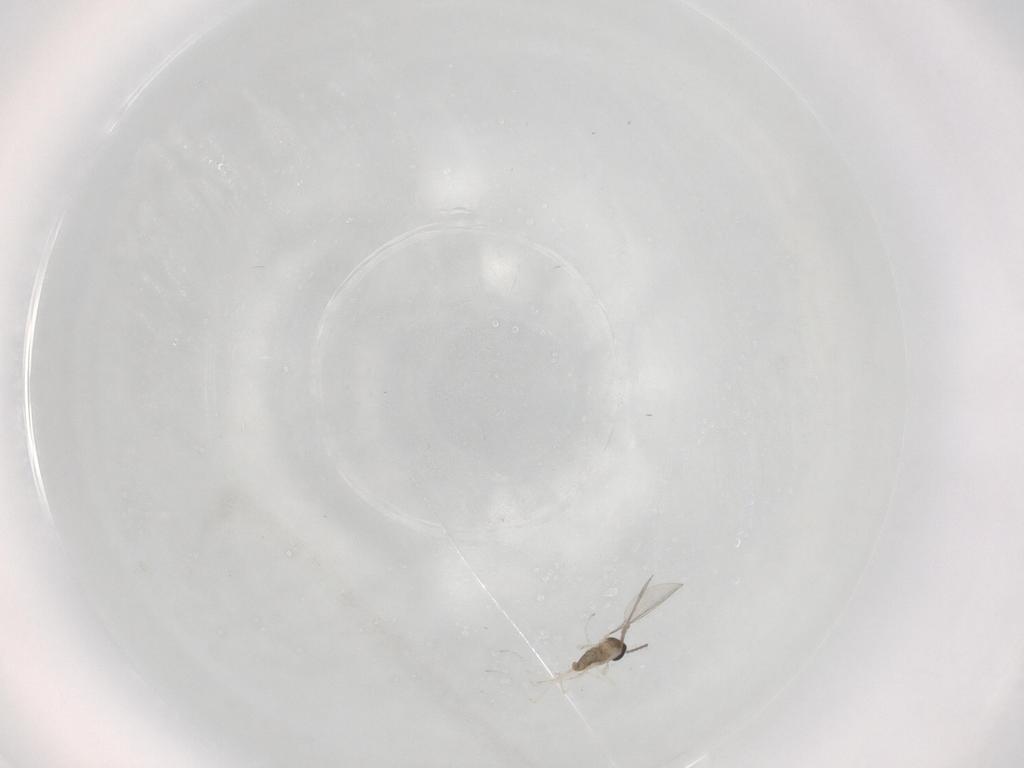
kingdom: Animalia
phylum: Arthropoda
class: Insecta
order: Diptera
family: Cecidomyiidae
